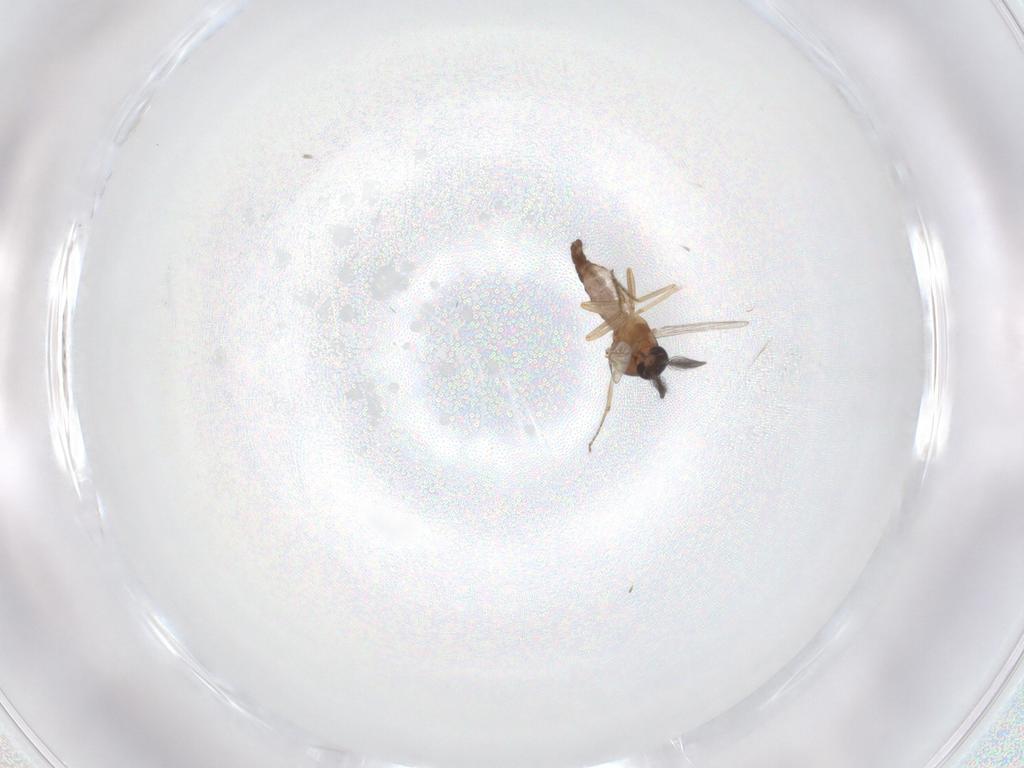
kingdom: Animalia
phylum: Arthropoda
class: Insecta
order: Diptera
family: Ceratopogonidae
